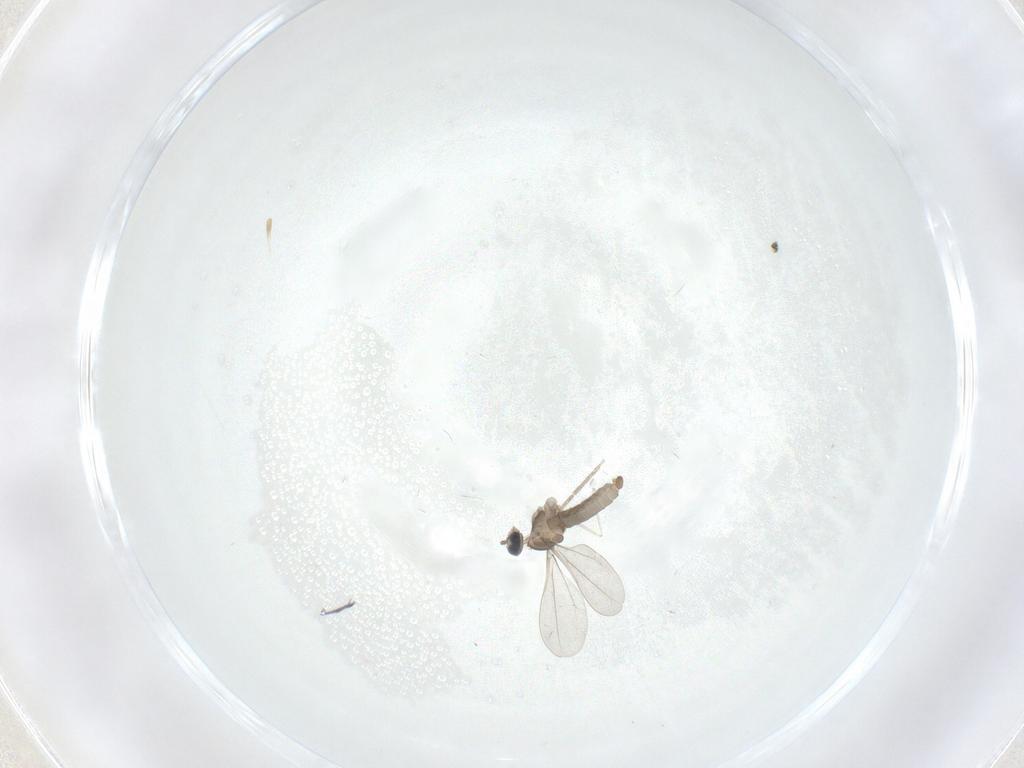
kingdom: Animalia
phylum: Arthropoda
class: Insecta
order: Diptera
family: Cecidomyiidae
